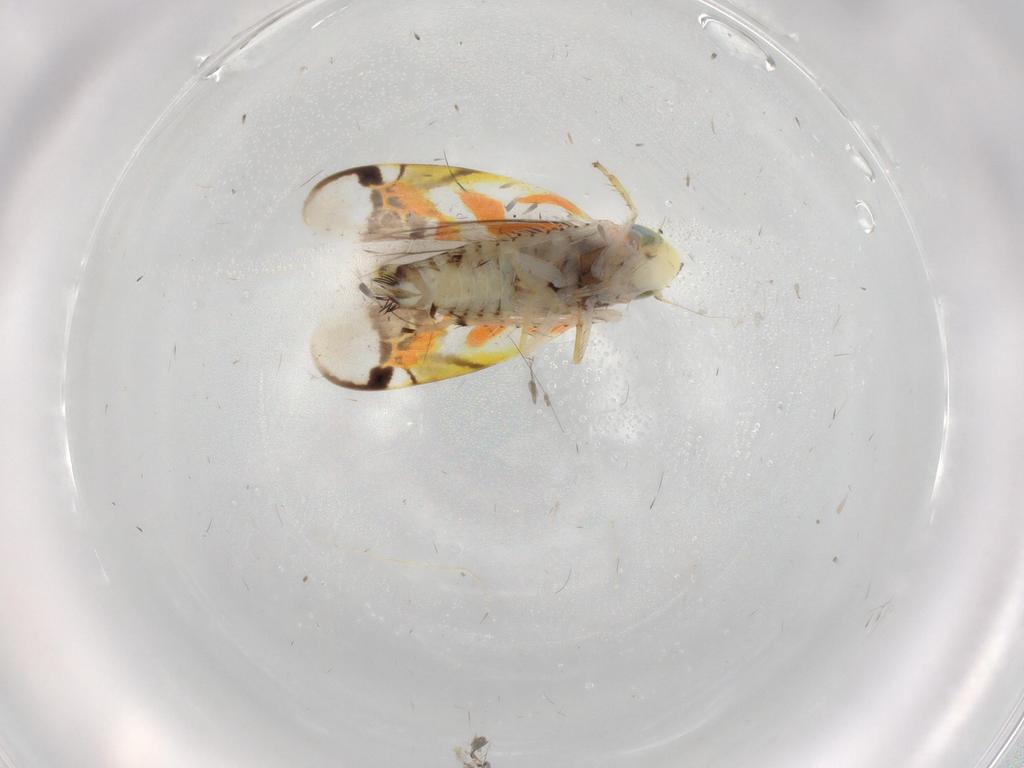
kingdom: Animalia
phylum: Arthropoda
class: Insecta
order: Hemiptera
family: Cicadellidae
